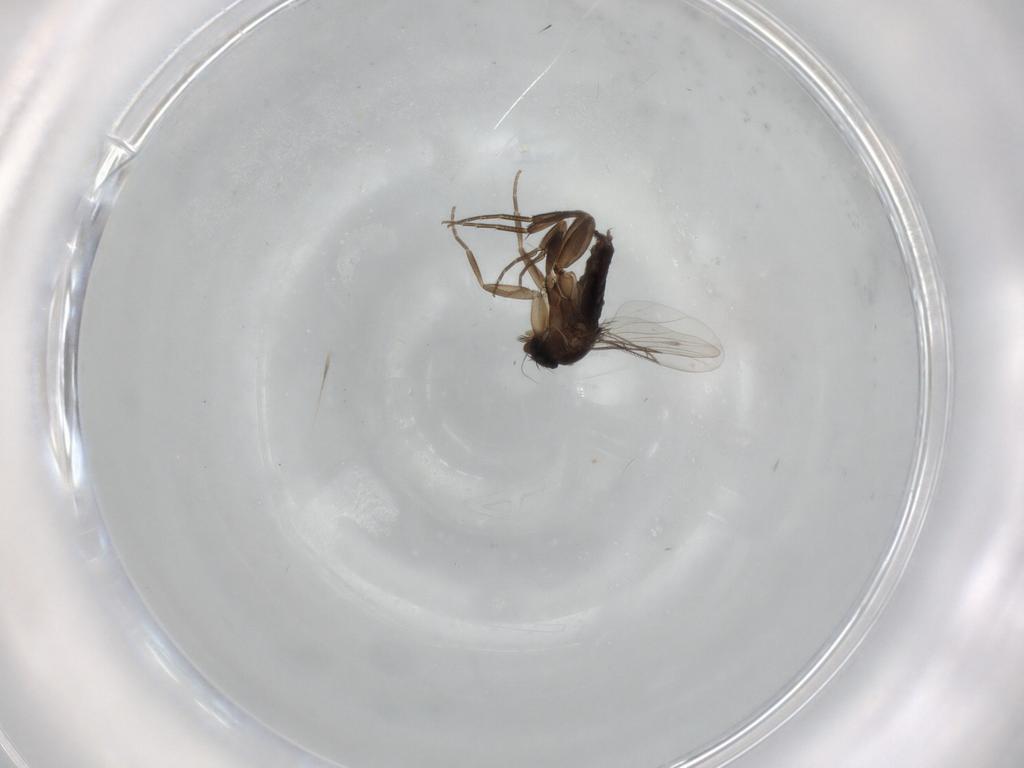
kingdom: Animalia
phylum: Arthropoda
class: Insecta
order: Diptera
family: Phoridae
